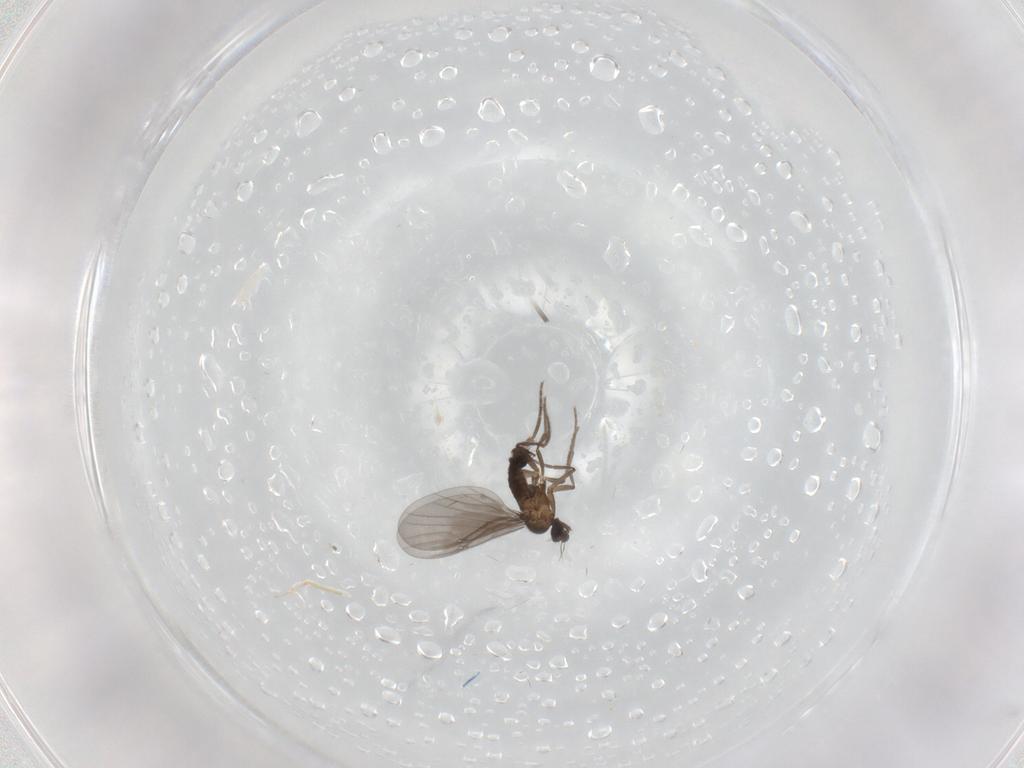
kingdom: Animalia
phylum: Arthropoda
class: Insecta
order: Diptera
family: Phoridae
